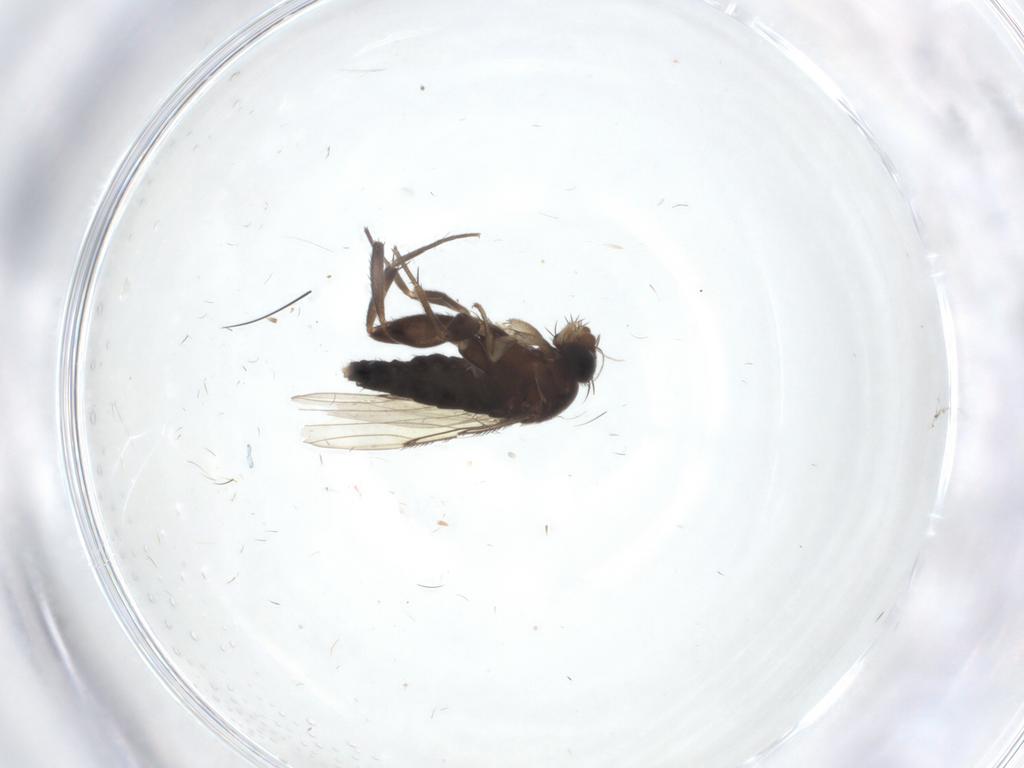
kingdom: Animalia
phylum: Arthropoda
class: Insecta
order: Diptera
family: Phoridae
